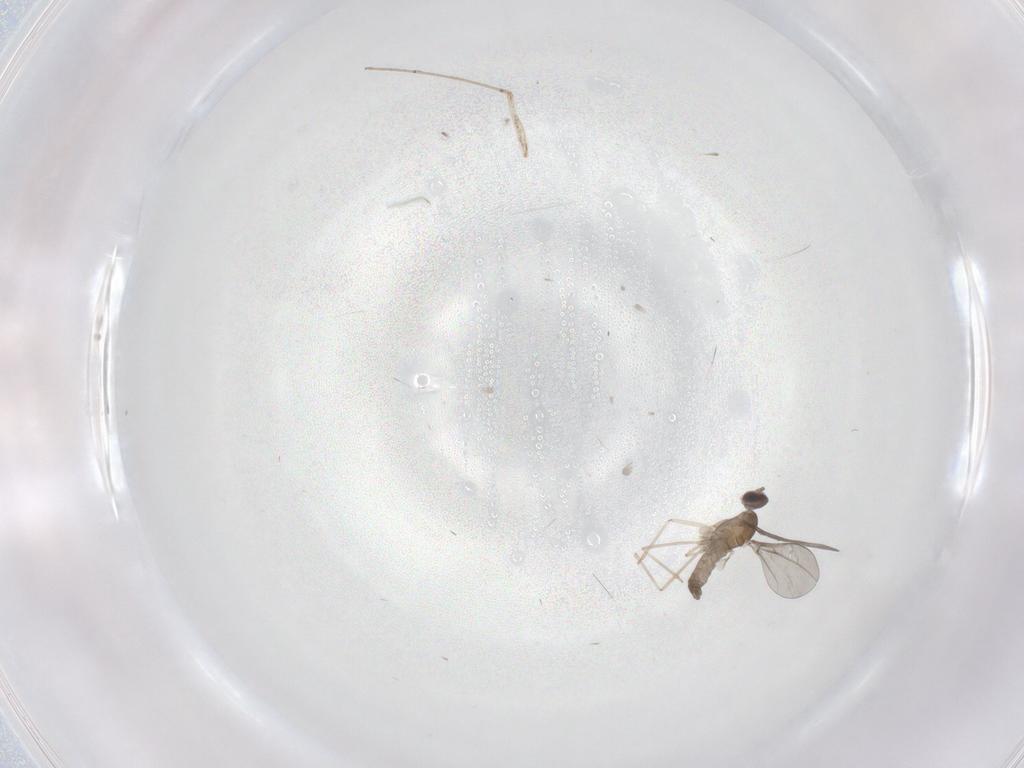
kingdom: Animalia
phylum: Arthropoda
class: Insecta
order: Diptera
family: Cecidomyiidae
